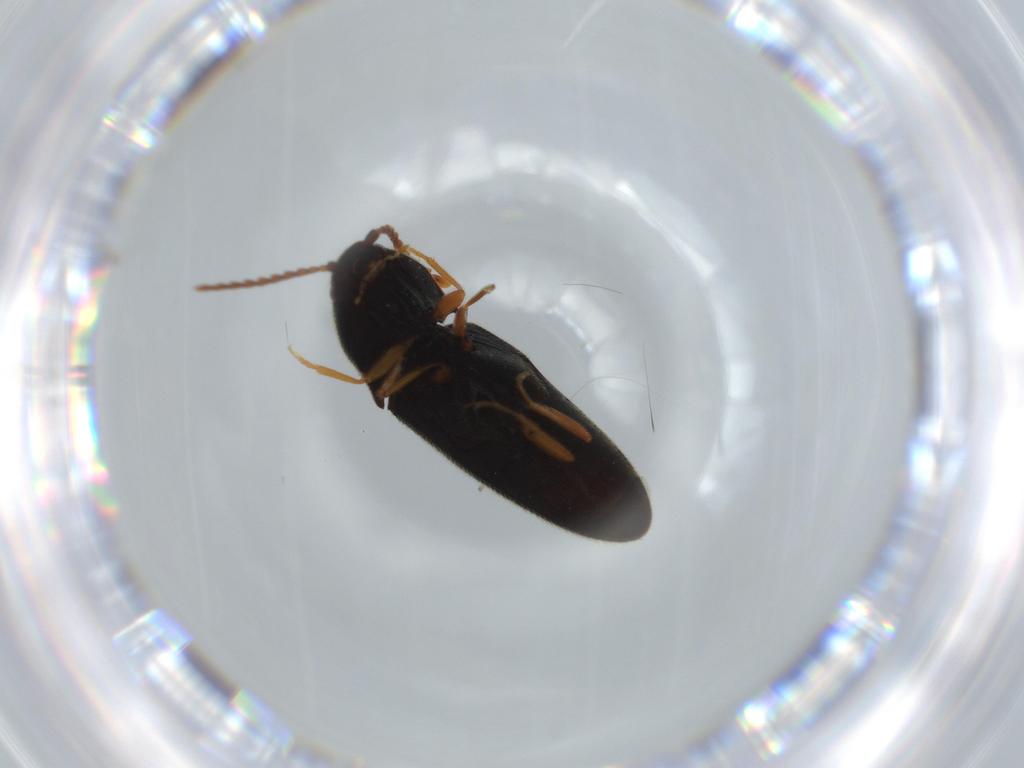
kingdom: Animalia
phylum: Arthropoda
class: Insecta
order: Coleoptera
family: Elateridae
